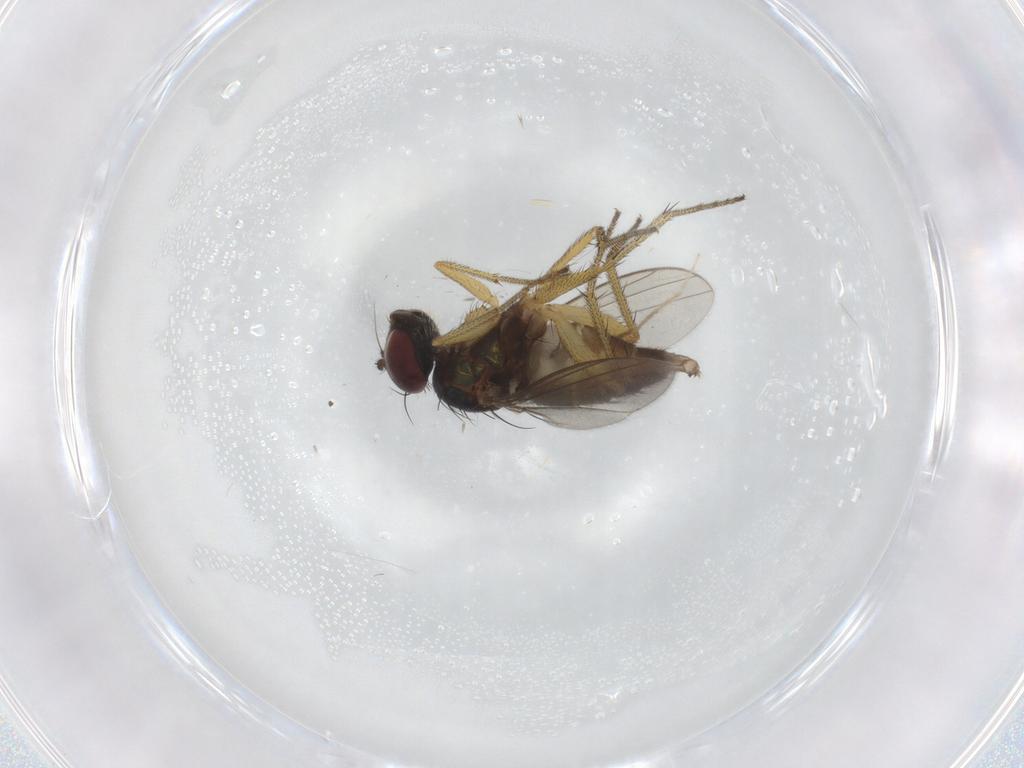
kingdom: Animalia
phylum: Arthropoda
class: Insecta
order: Diptera
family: Dolichopodidae
